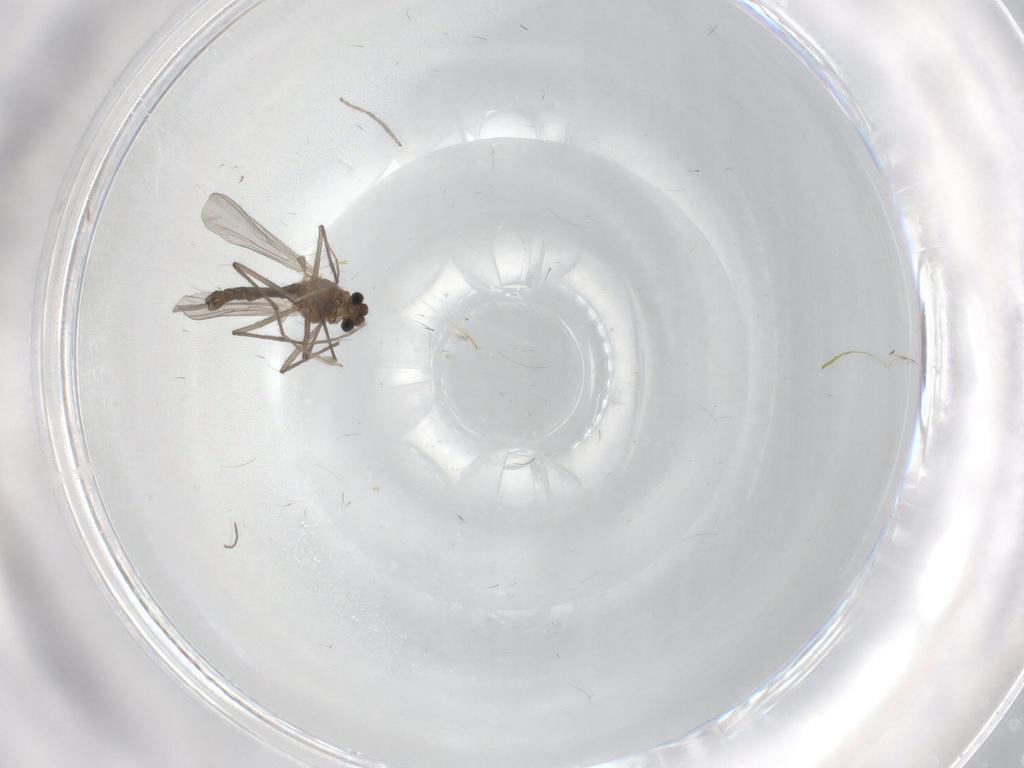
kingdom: Animalia
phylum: Arthropoda
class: Insecta
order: Diptera
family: Chironomidae
